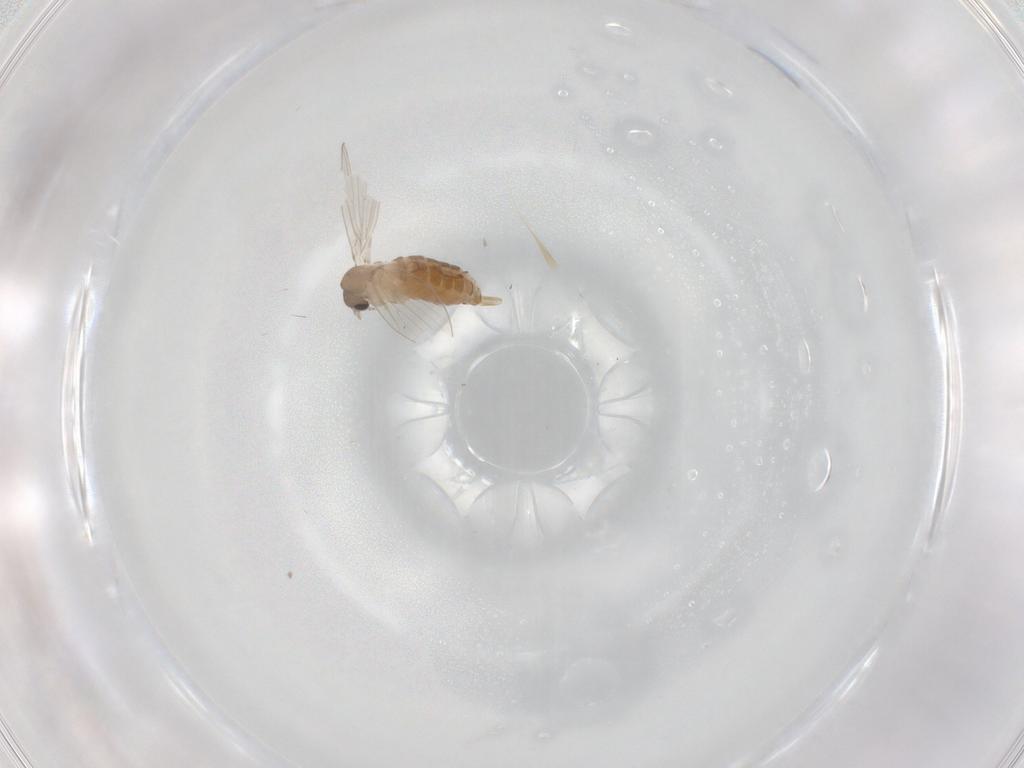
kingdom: Animalia
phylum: Arthropoda
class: Insecta
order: Diptera
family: Psychodidae
